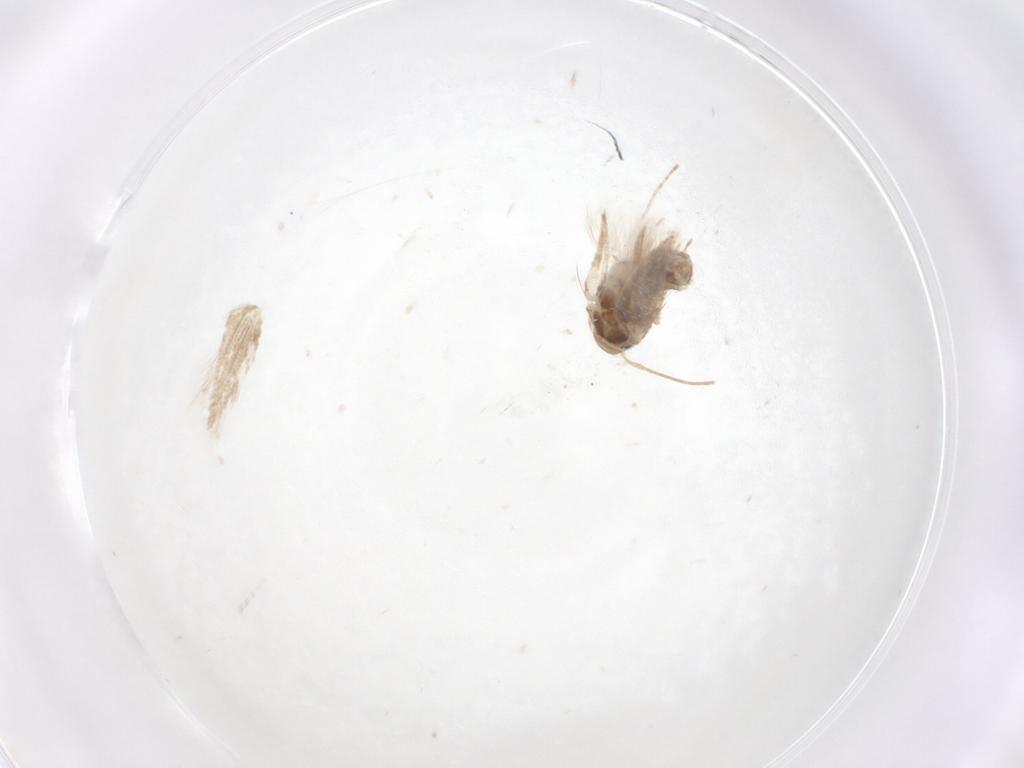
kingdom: Animalia
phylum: Arthropoda
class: Insecta
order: Lepidoptera
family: Depressariidae
